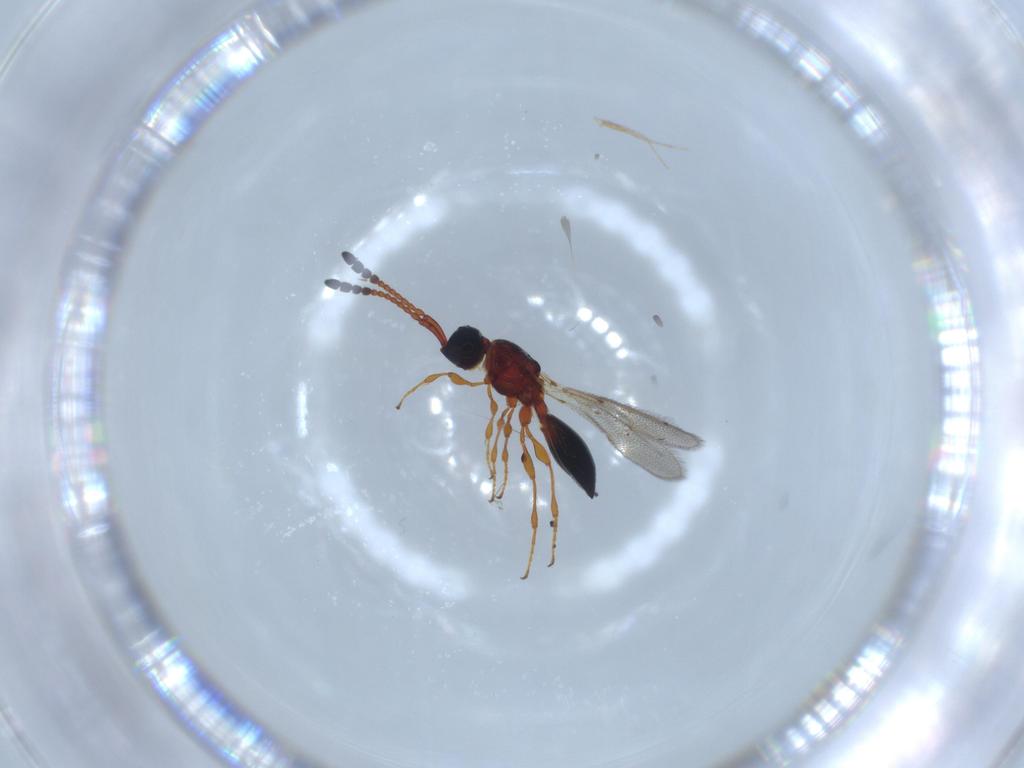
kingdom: Animalia
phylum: Arthropoda
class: Insecta
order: Hymenoptera
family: Diapriidae
